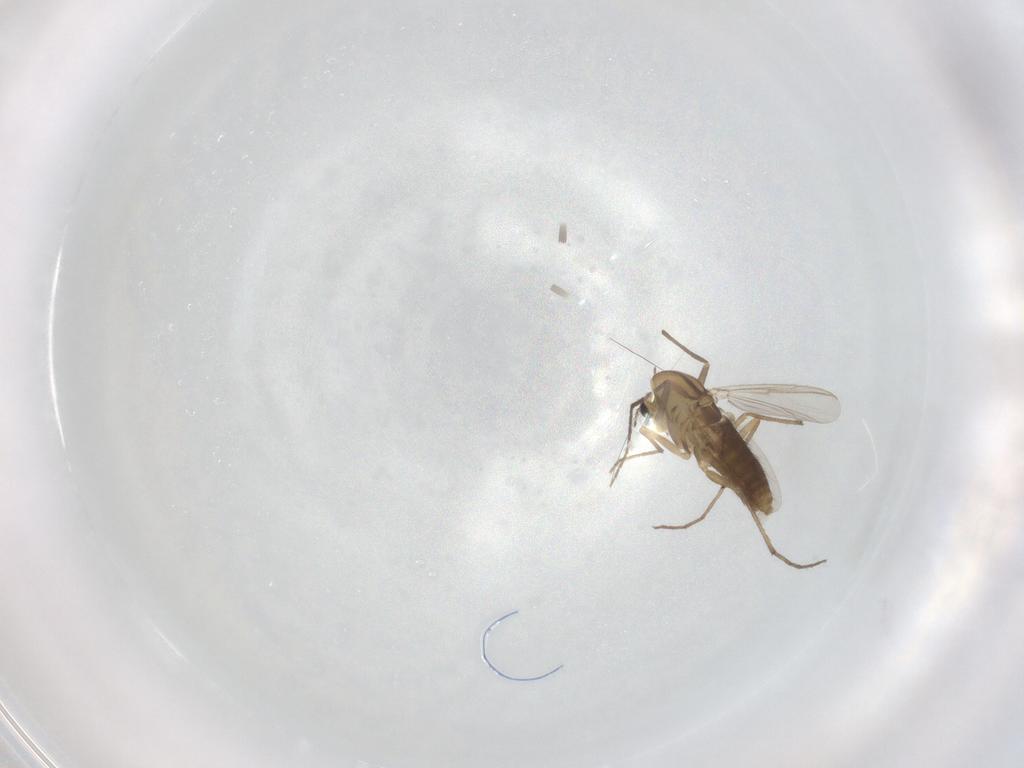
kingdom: Animalia
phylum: Arthropoda
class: Insecta
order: Diptera
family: Chironomidae
